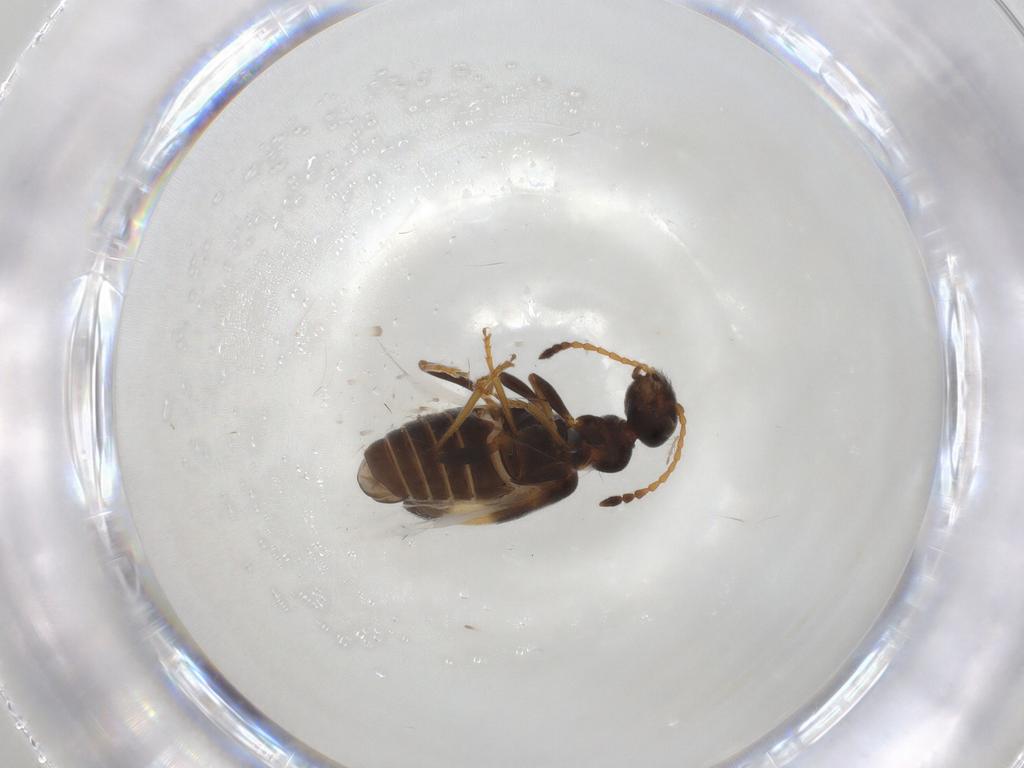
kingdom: Animalia
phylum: Arthropoda
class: Insecta
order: Coleoptera
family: Anthicidae
